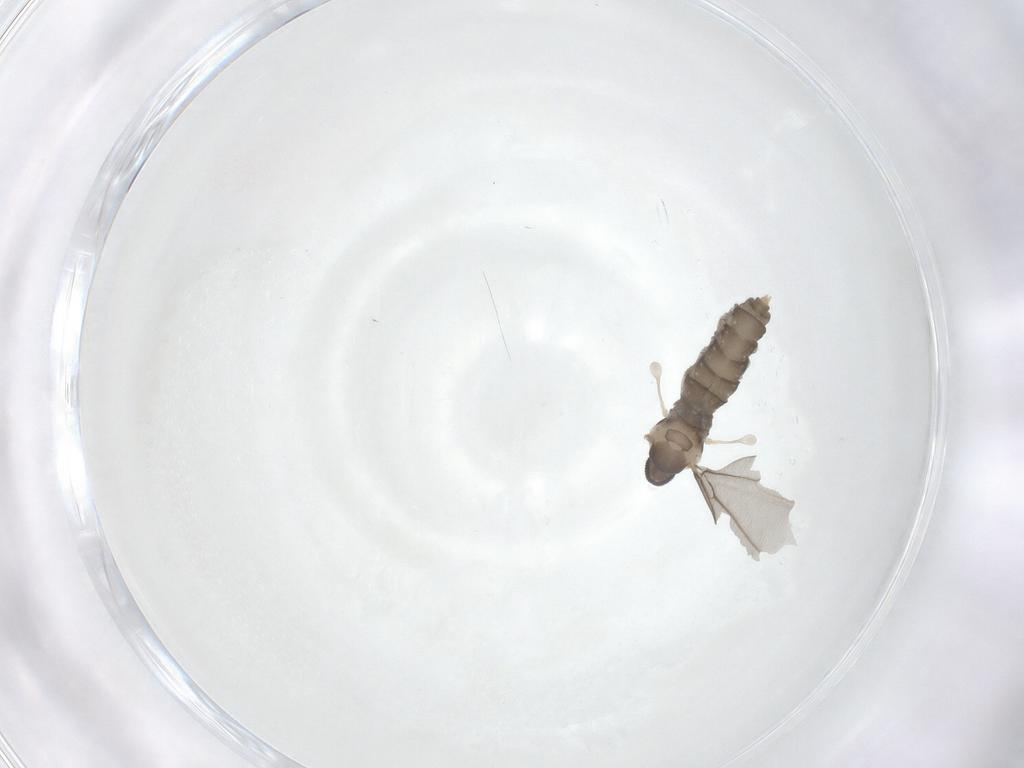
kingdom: Animalia
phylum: Arthropoda
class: Insecta
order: Diptera
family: Cecidomyiidae
